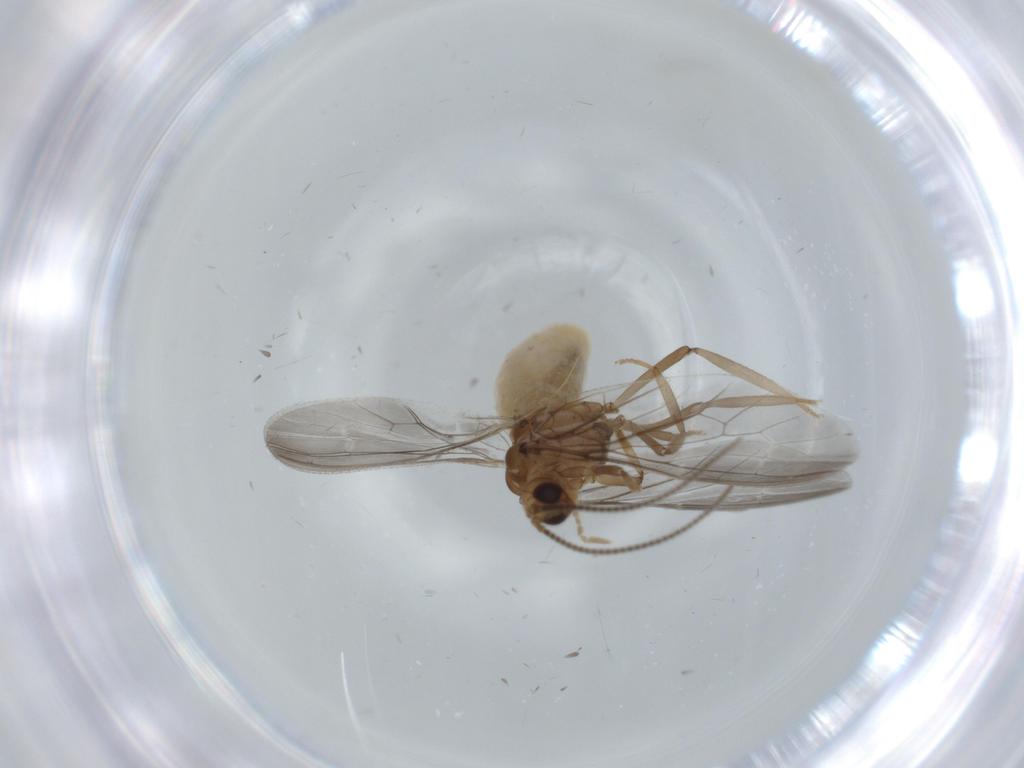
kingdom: Animalia
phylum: Arthropoda
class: Insecta
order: Neuroptera
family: Coniopterygidae
